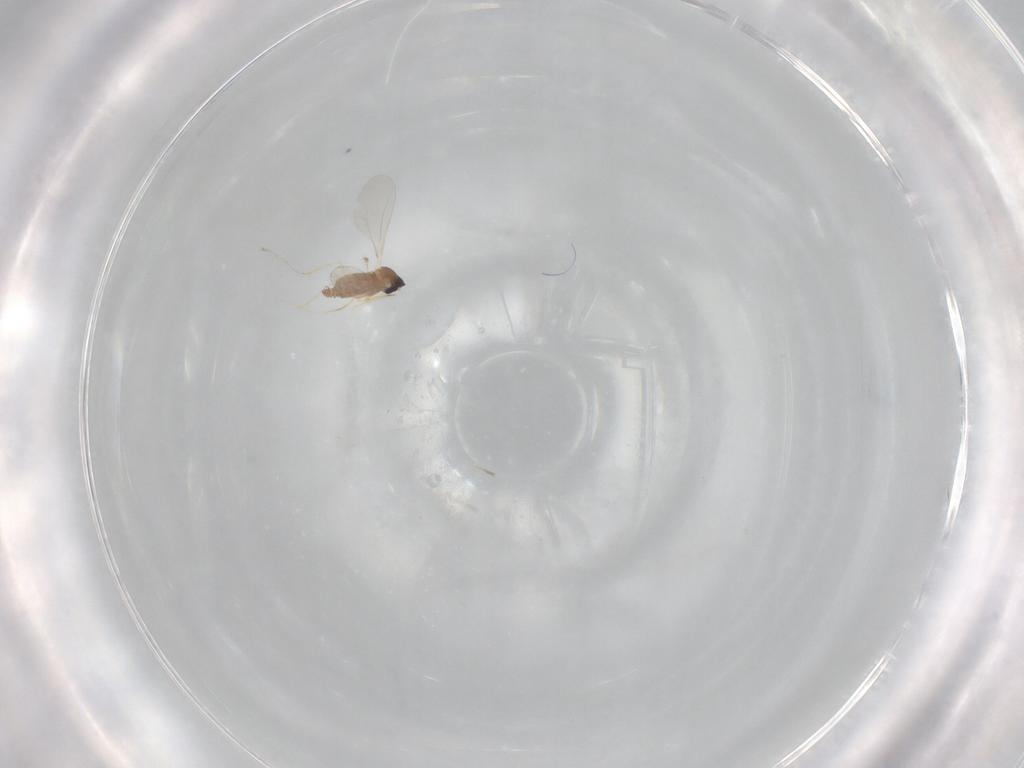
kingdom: Animalia
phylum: Arthropoda
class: Insecta
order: Diptera
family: Cecidomyiidae
